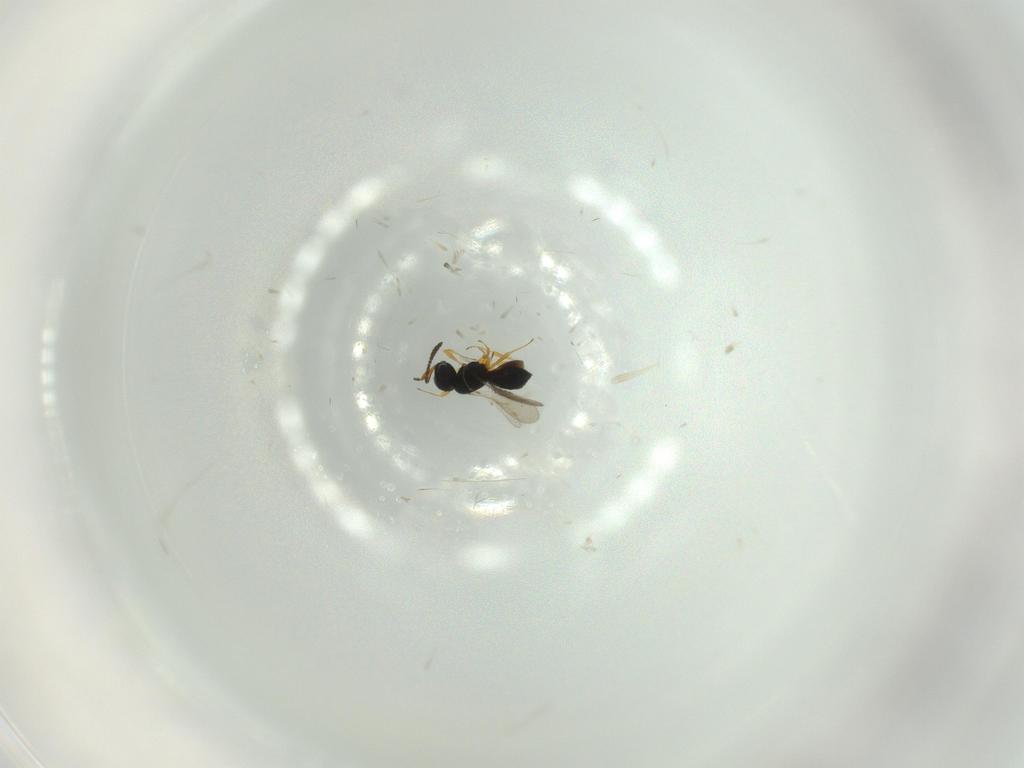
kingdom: Animalia
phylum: Arthropoda
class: Insecta
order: Hymenoptera
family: Scelionidae
